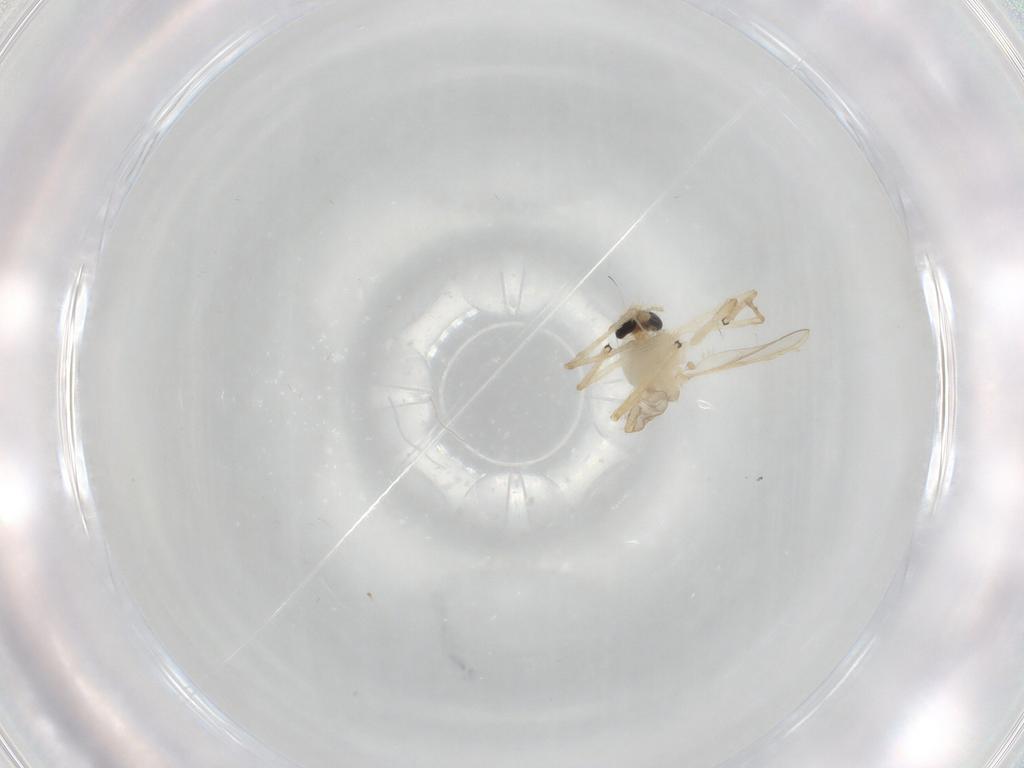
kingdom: Animalia
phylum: Arthropoda
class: Insecta
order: Diptera
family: Chironomidae
